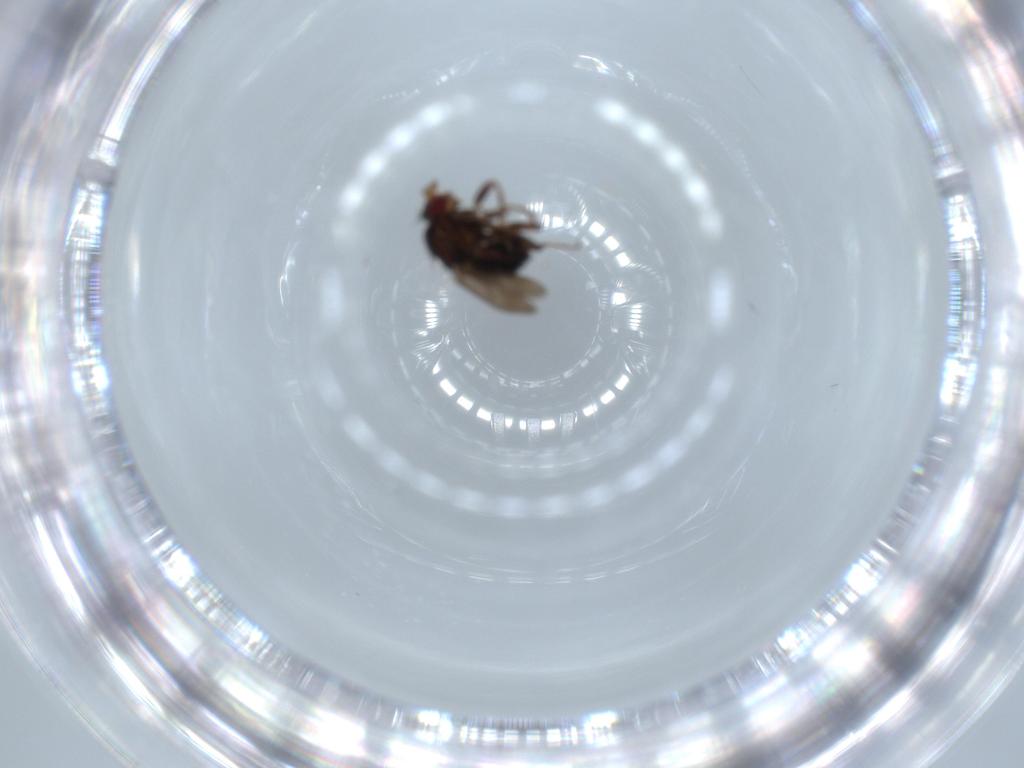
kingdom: Animalia
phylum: Arthropoda
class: Insecta
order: Diptera
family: Sphaeroceridae
